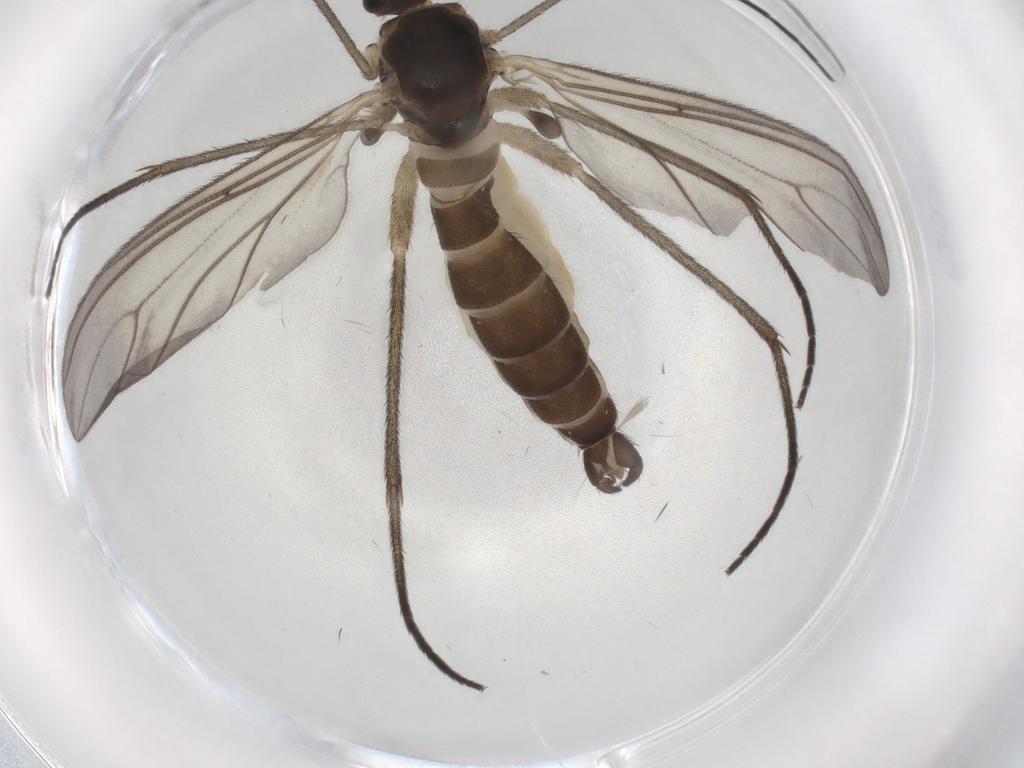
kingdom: Animalia
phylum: Arthropoda
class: Insecta
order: Diptera
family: Sciaridae
